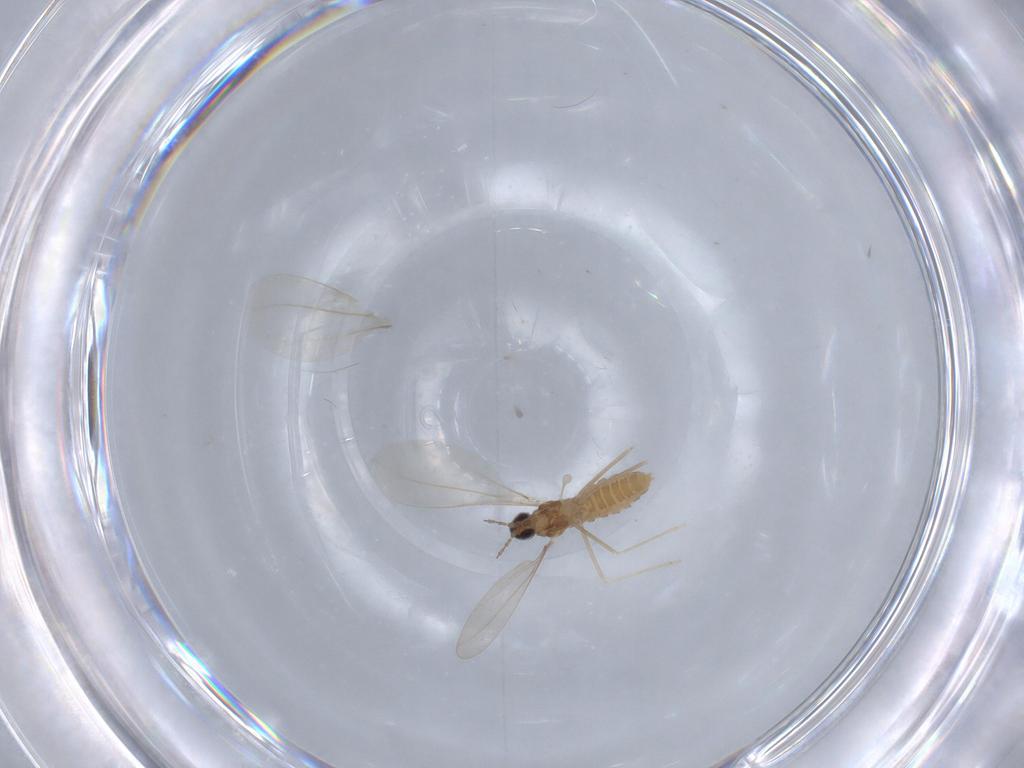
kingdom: Animalia
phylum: Arthropoda
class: Insecta
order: Diptera
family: Cecidomyiidae
